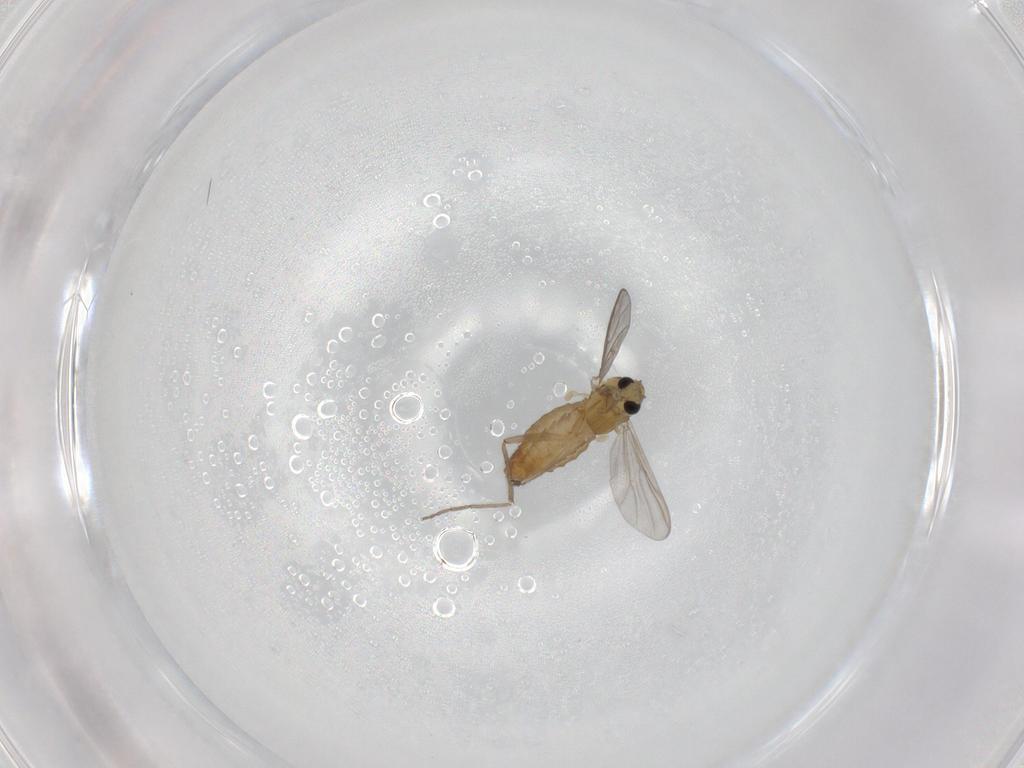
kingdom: Animalia
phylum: Arthropoda
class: Insecta
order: Diptera
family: Chironomidae
